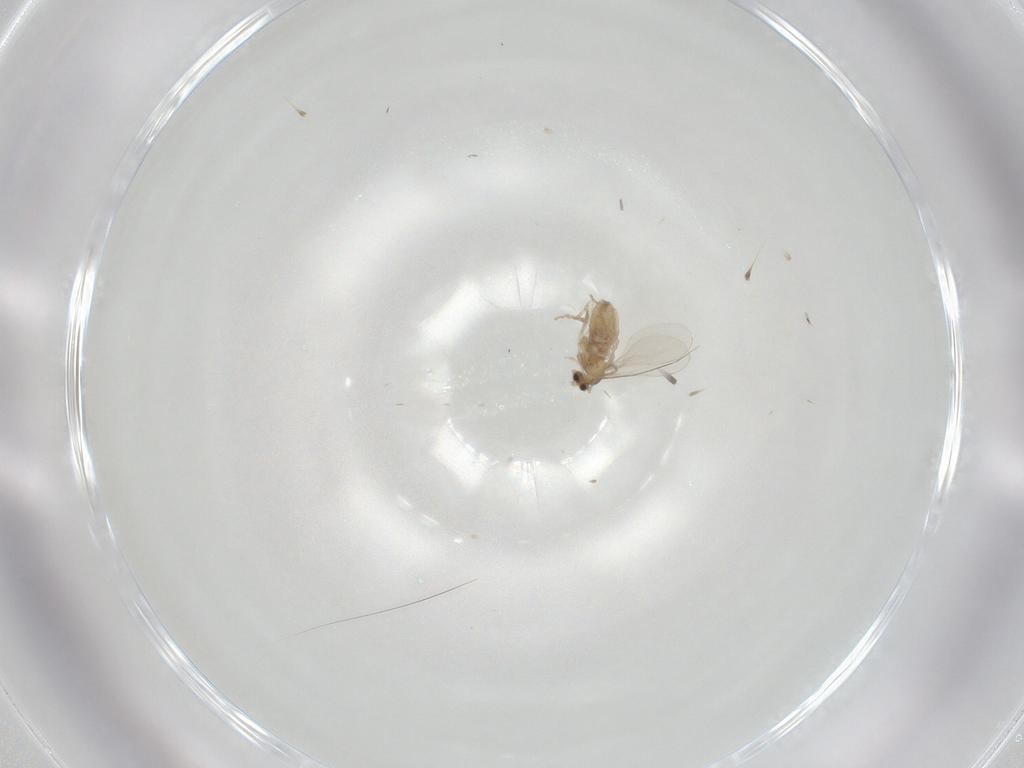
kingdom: Animalia
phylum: Arthropoda
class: Insecta
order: Diptera
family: Cecidomyiidae
